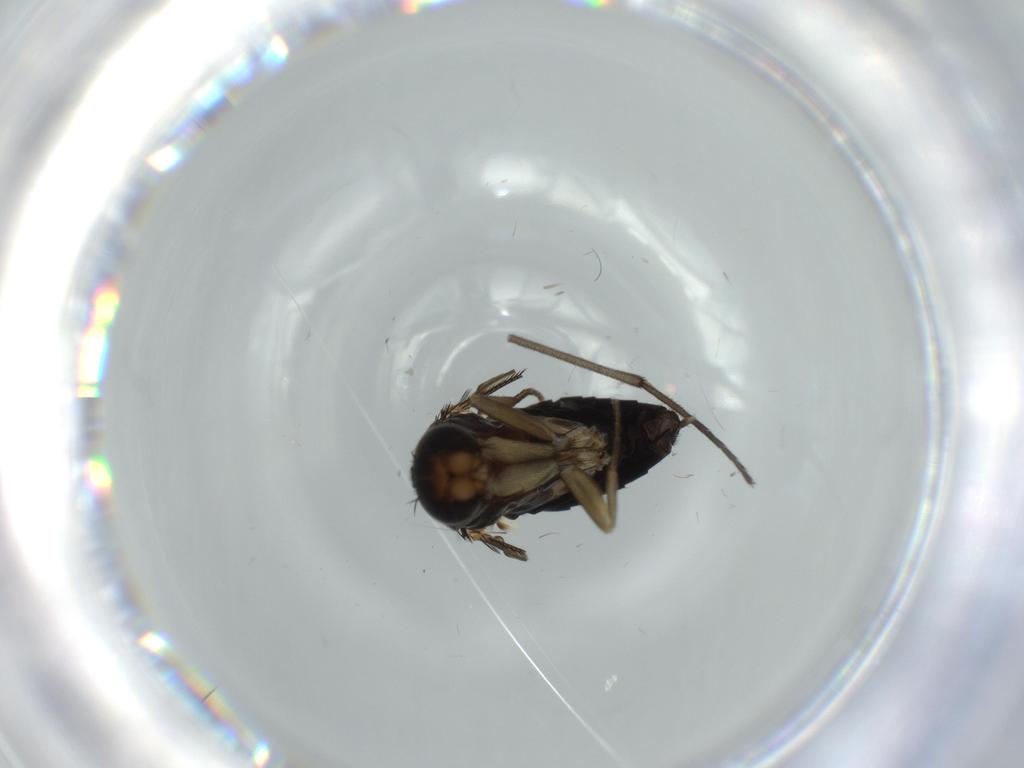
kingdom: Animalia
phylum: Arthropoda
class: Insecta
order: Diptera
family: Phoridae
